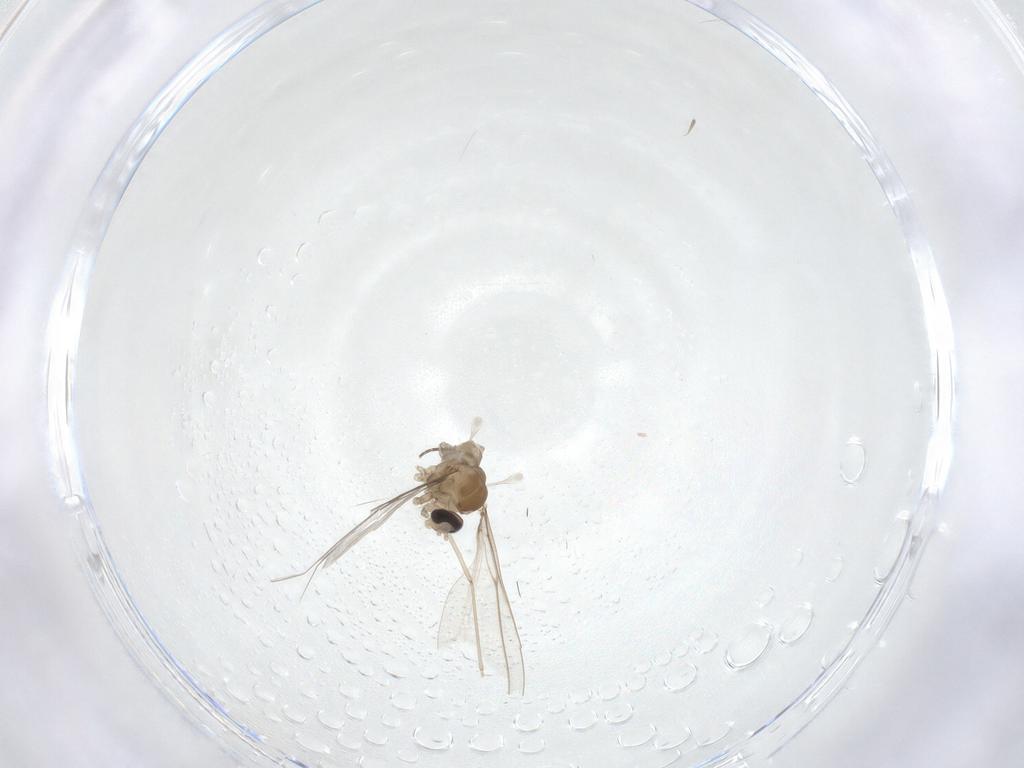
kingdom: Animalia
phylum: Arthropoda
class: Insecta
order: Diptera
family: Muscidae
